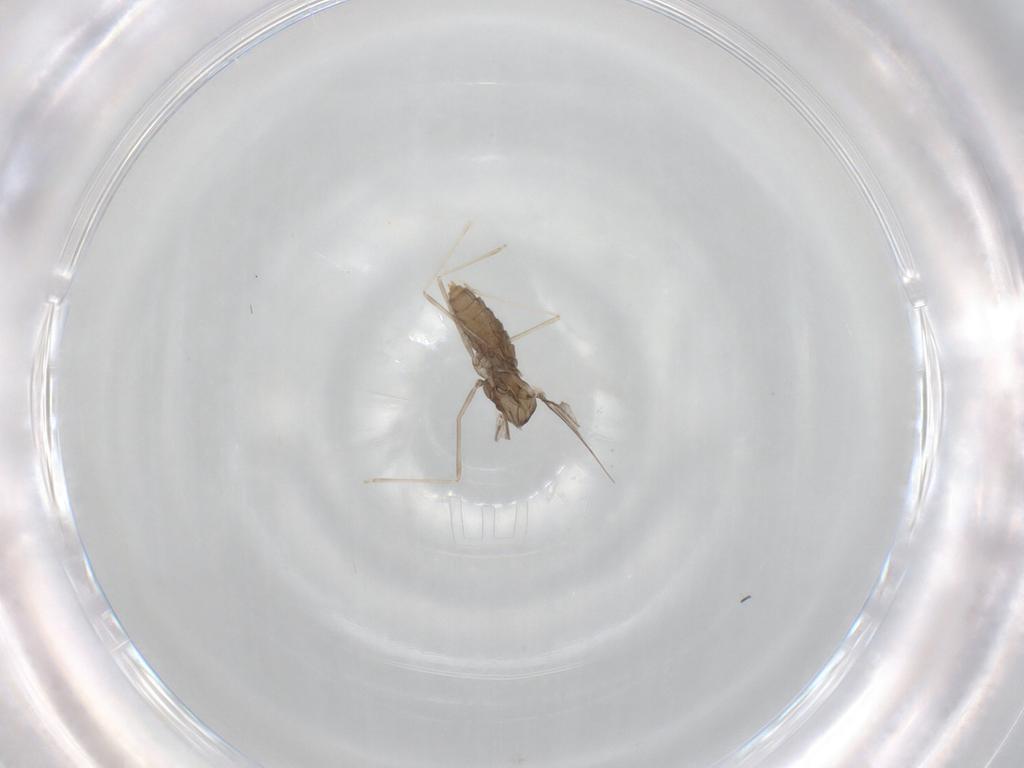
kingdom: Animalia
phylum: Arthropoda
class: Insecta
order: Diptera
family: Cecidomyiidae
